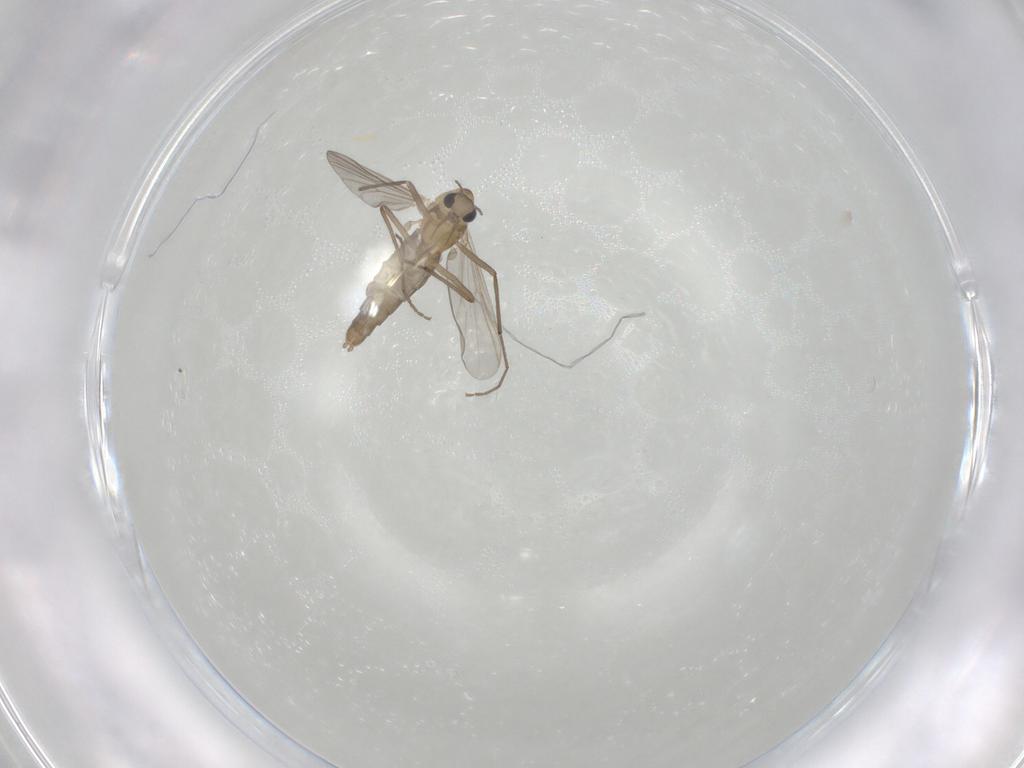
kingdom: Animalia
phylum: Arthropoda
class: Insecta
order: Diptera
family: Chironomidae
